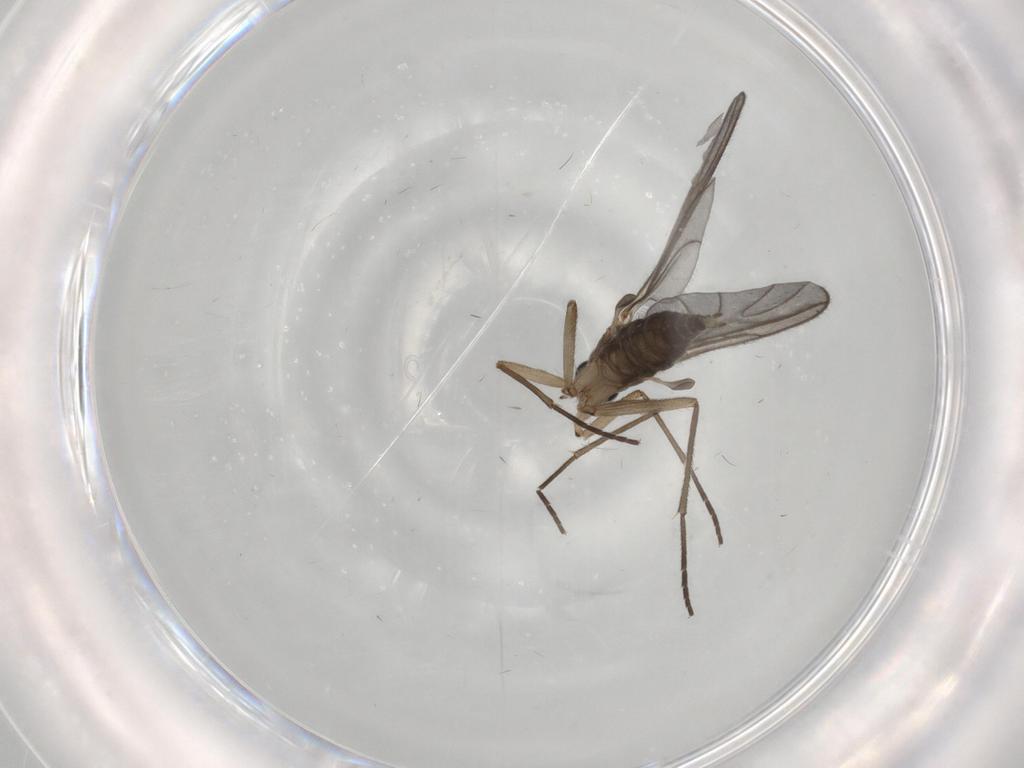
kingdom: Animalia
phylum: Arthropoda
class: Insecta
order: Diptera
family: Sciaridae
